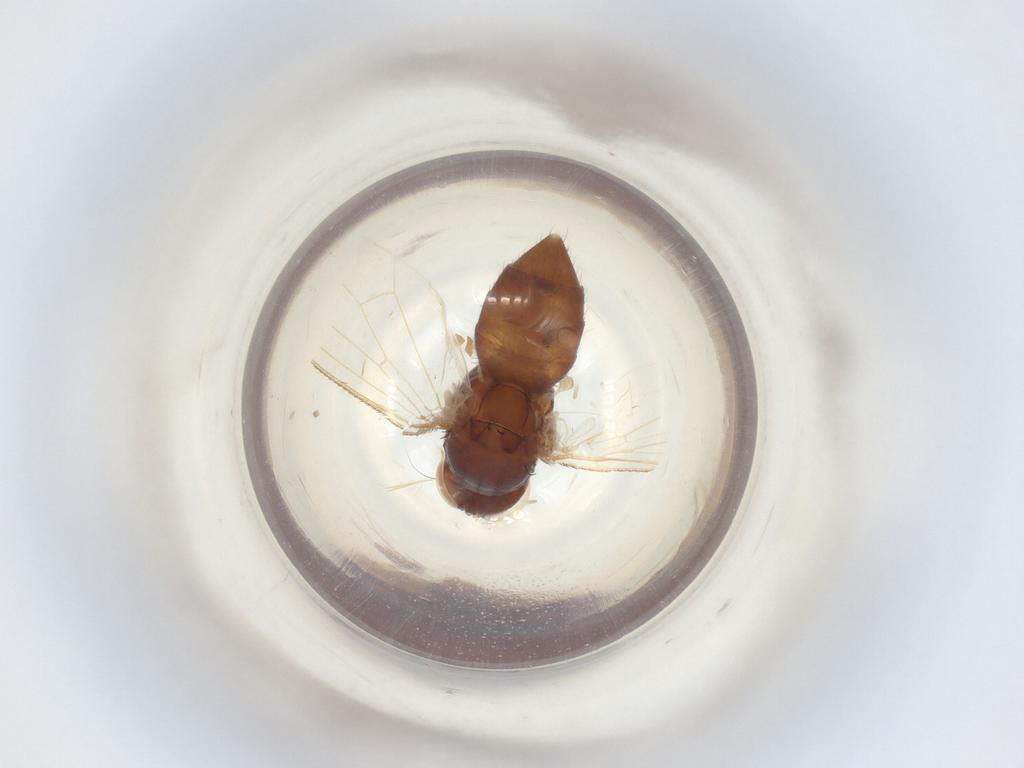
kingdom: Animalia
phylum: Arthropoda
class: Insecta
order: Diptera
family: Muscidae
